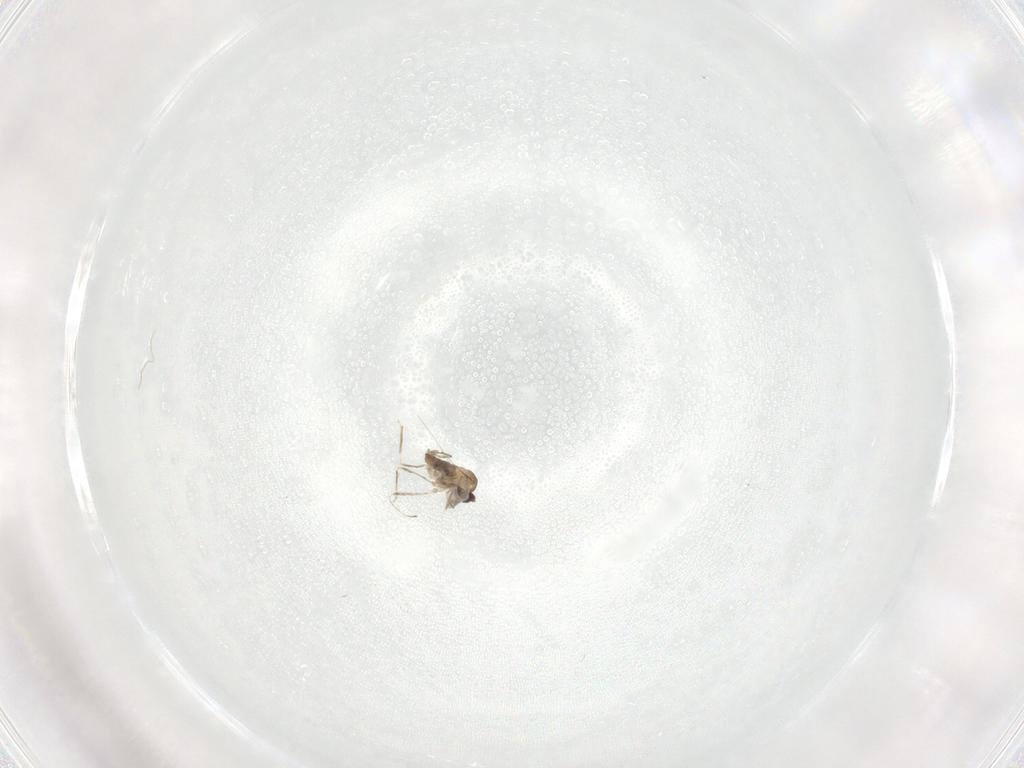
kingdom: Animalia
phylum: Arthropoda
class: Insecta
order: Diptera
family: Cecidomyiidae
